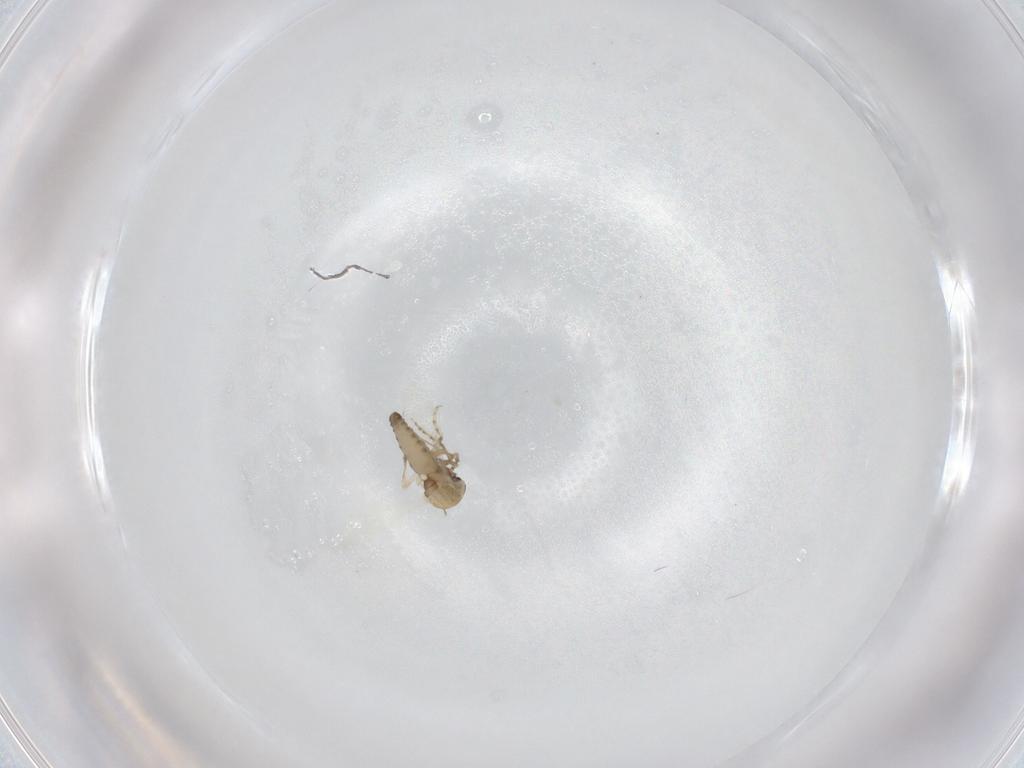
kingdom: Animalia
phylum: Arthropoda
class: Insecta
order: Diptera
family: Ceratopogonidae
